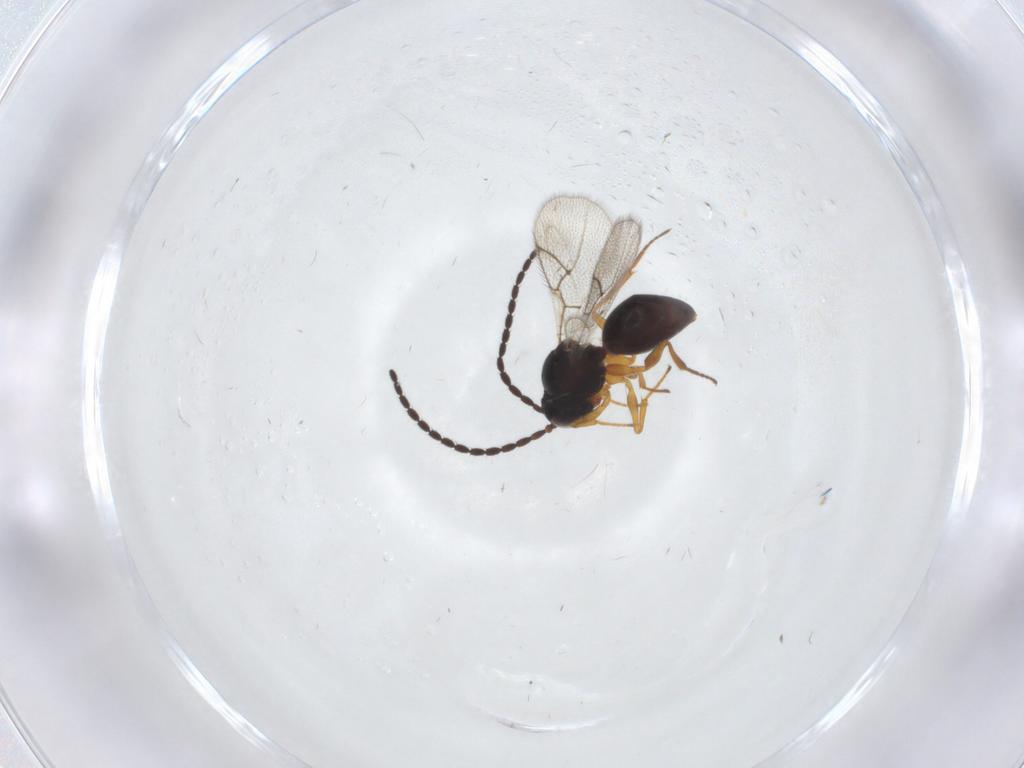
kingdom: Animalia
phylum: Arthropoda
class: Insecta
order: Hymenoptera
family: Figitidae
